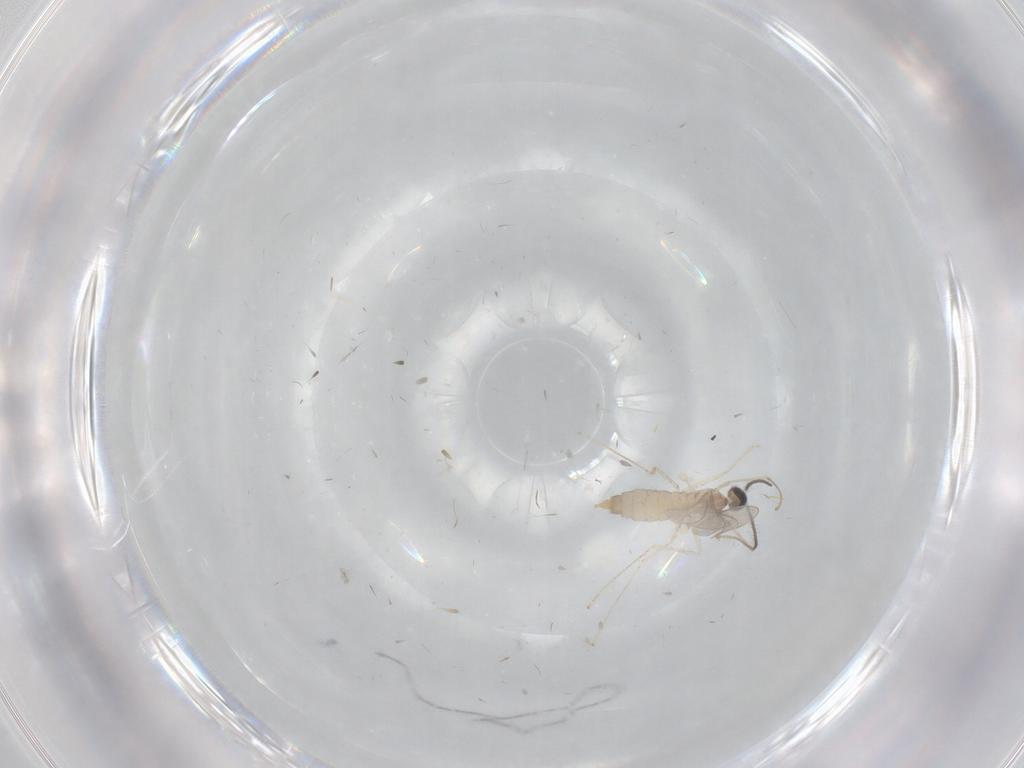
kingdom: Animalia
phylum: Arthropoda
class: Insecta
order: Diptera
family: Cecidomyiidae
